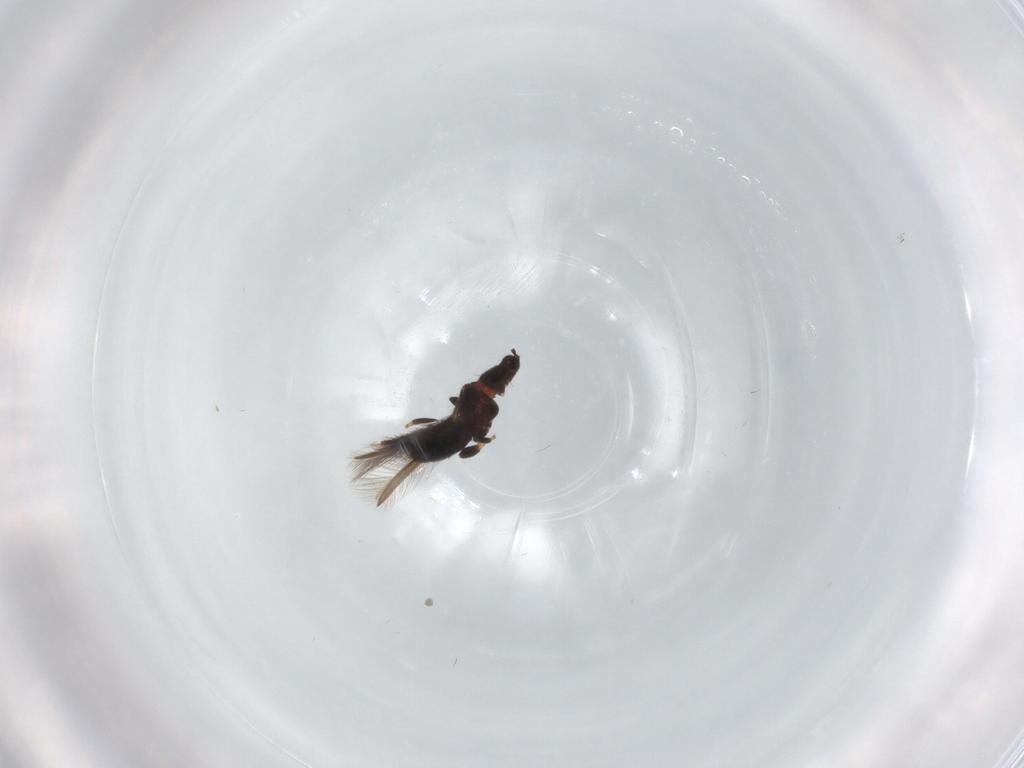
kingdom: Animalia
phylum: Arthropoda
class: Insecta
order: Thysanoptera
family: Thripidae
